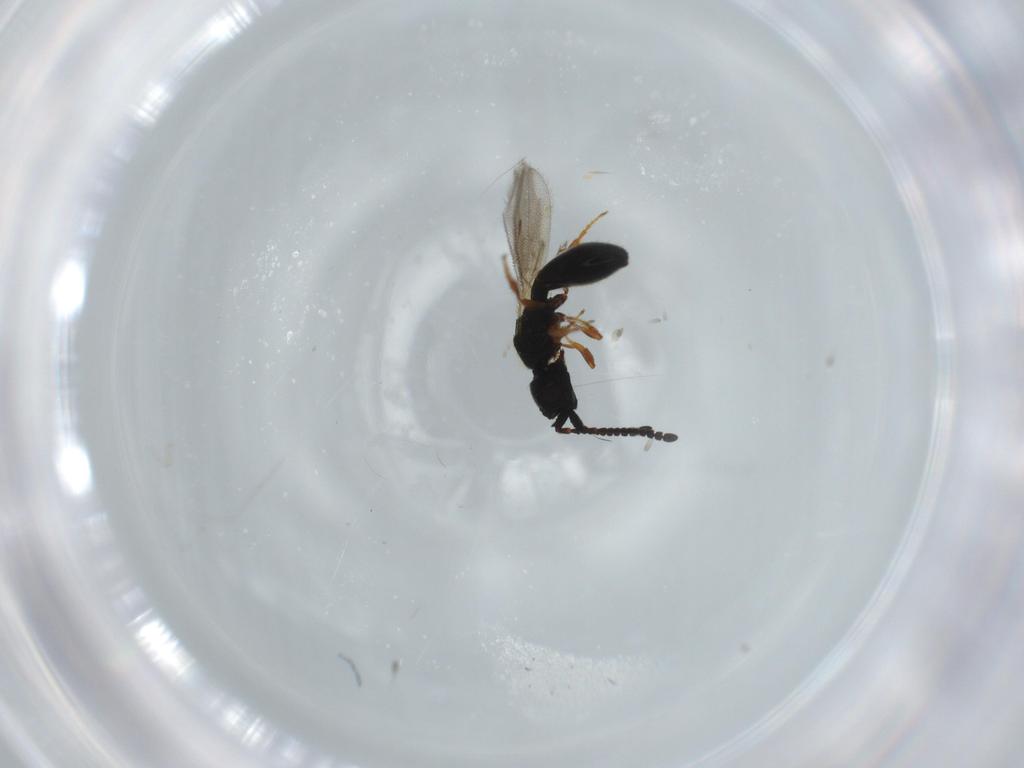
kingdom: Animalia
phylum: Arthropoda
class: Insecta
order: Hymenoptera
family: Diapriidae
